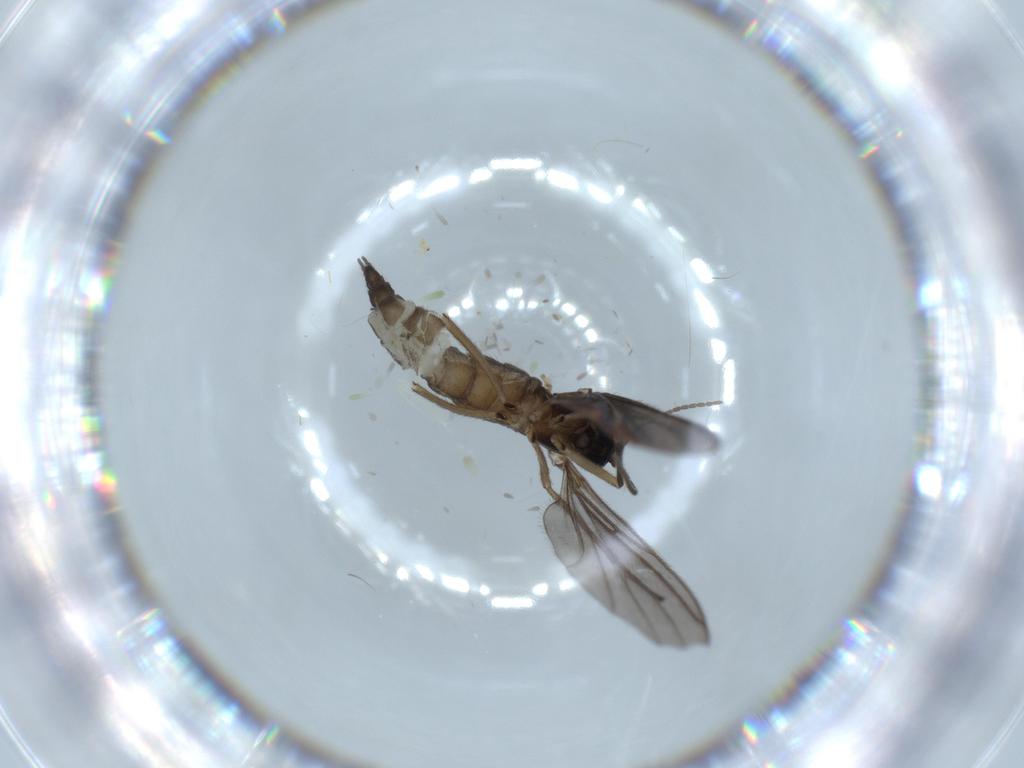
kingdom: Animalia
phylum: Arthropoda
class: Insecta
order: Diptera
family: Sciaridae
